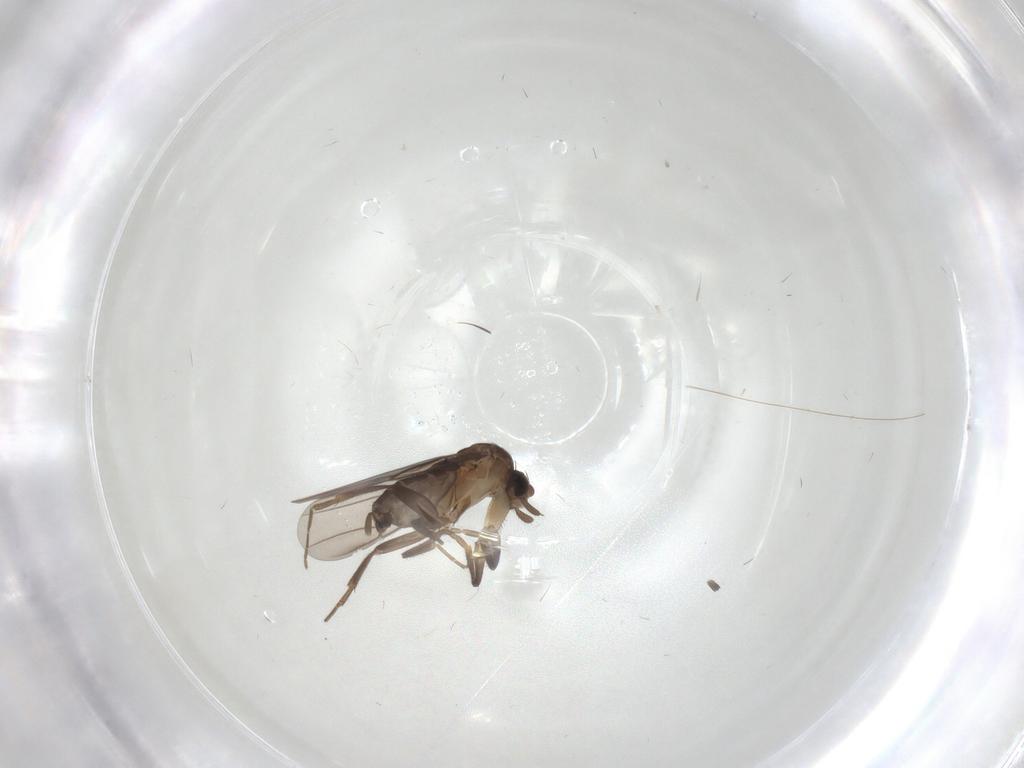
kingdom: Animalia
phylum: Arthropoda
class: Insecta
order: Diptera
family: Phoridae
